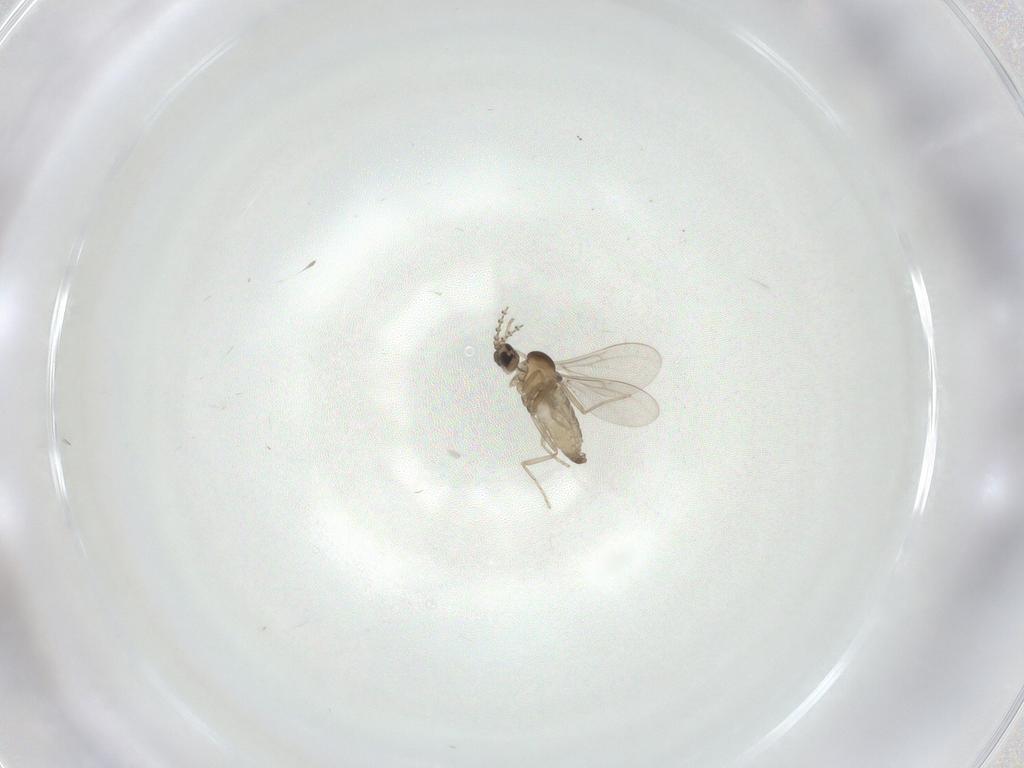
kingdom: Animalia
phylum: Arthropoda
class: Insecta
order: Diptera
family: Cecidomyiidae
